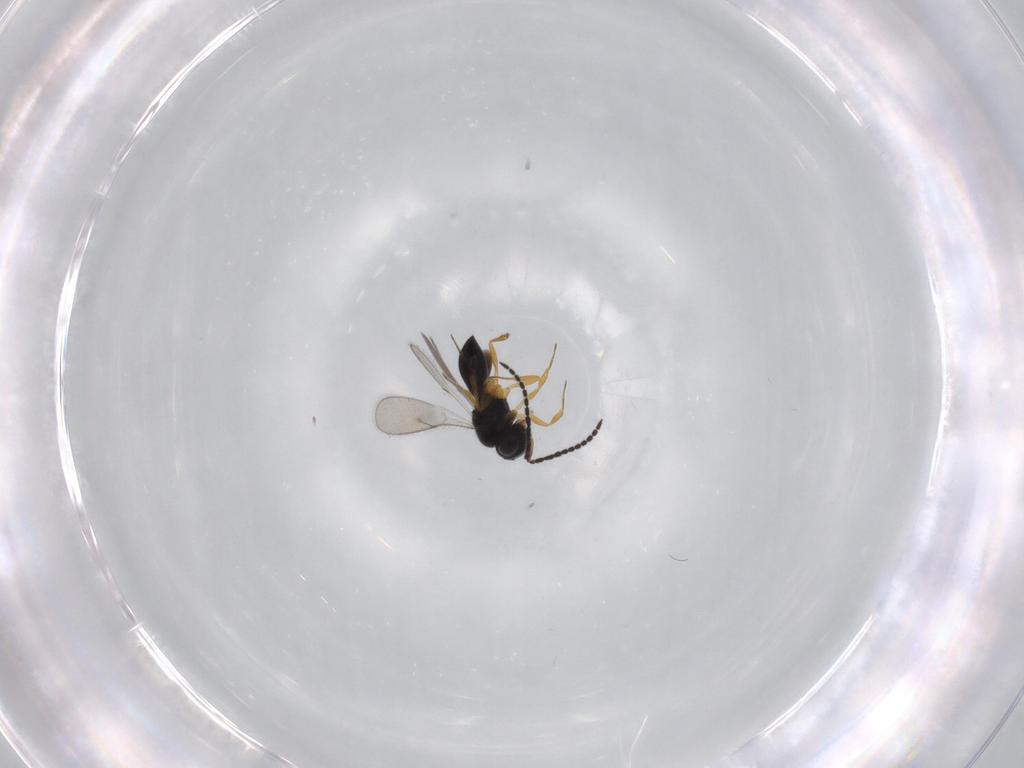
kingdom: Animalia
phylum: Arthropoda
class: Insecta
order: Hymenoptera
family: Scelionidae
